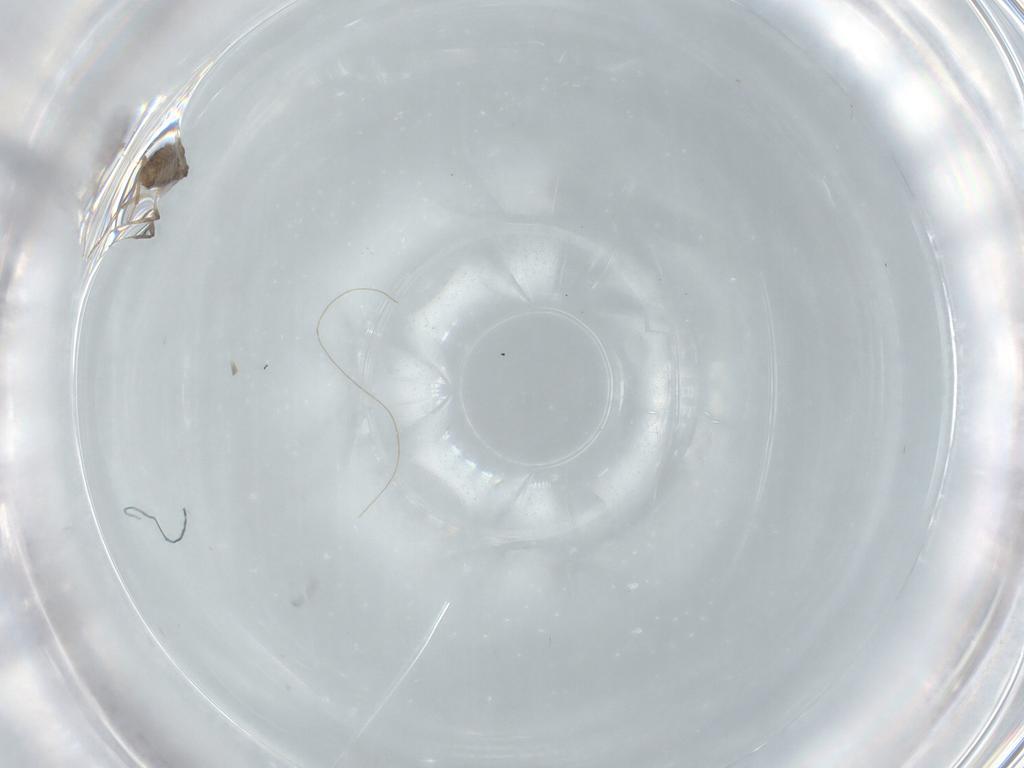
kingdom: Animalia
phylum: Arthropoda
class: Insecta
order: Diptera
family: Chironomidae
